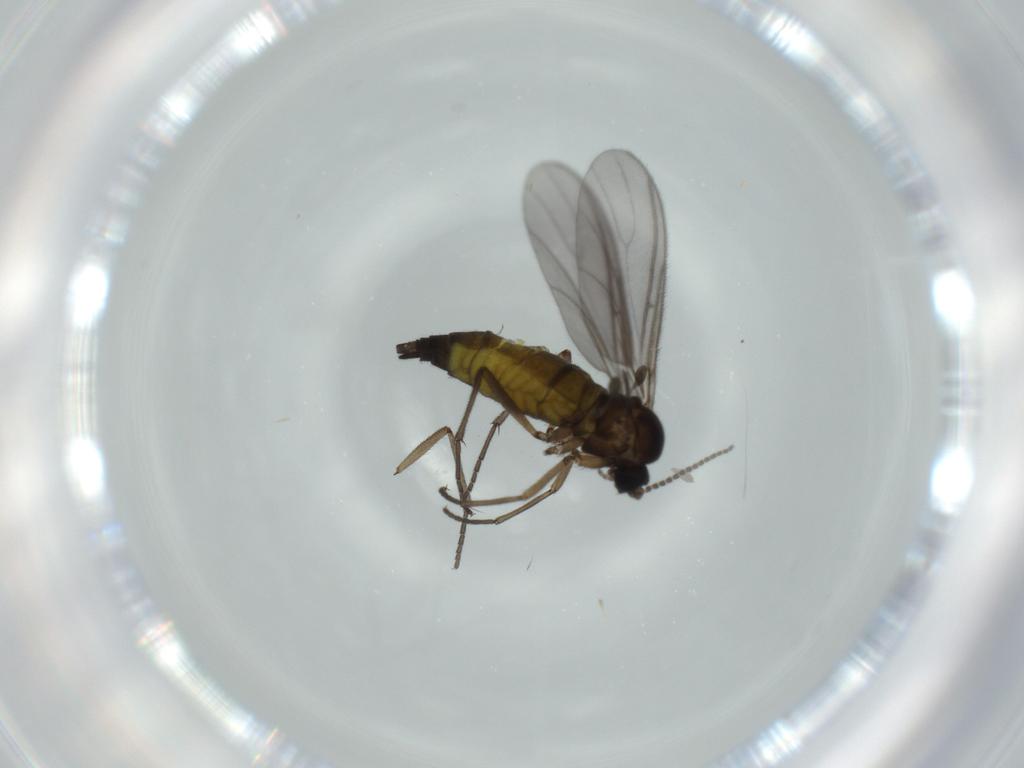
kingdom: Animalia
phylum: Arthropoda
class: Insecta
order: Diptera
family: Sciaridae
